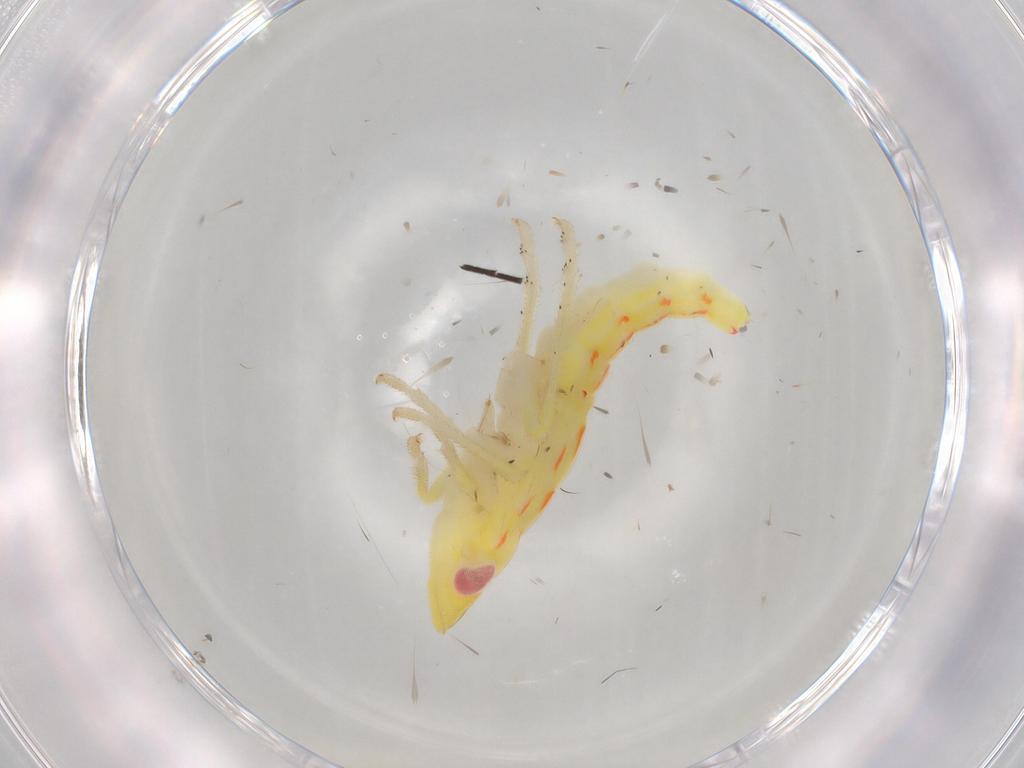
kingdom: Animalia
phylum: Arthropoda
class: Insecta
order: Hemiptera
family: Tropiduchidae
